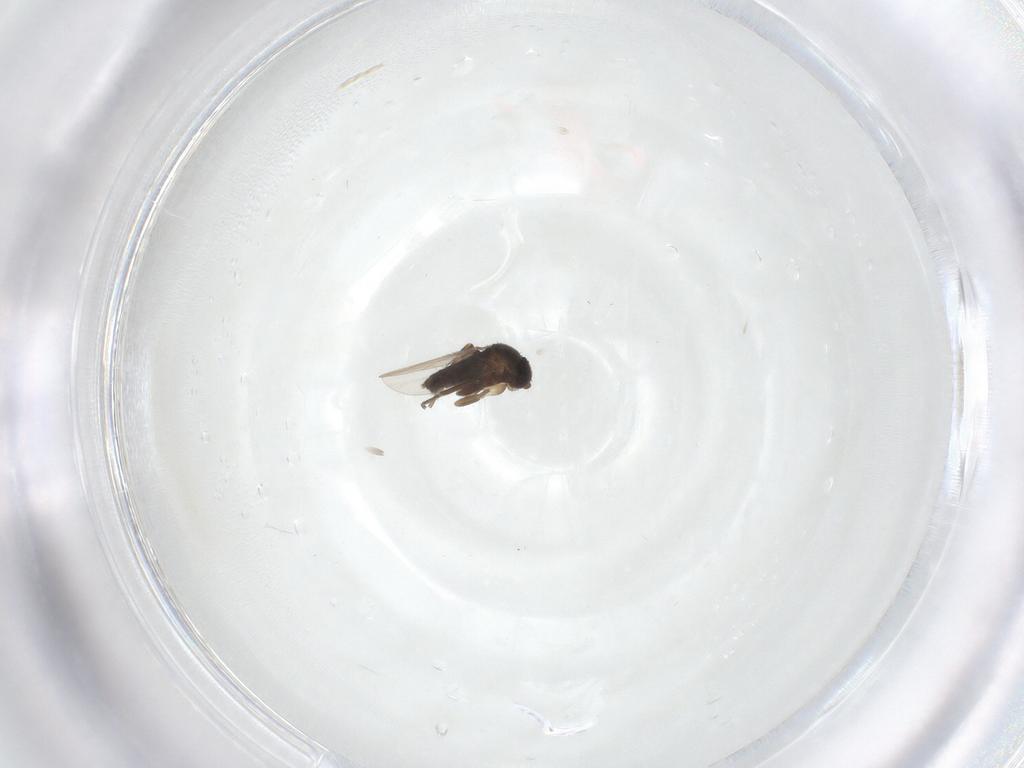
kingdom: Animalia
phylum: Arthropoda
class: Insecta
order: Diptera
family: Phoridae
